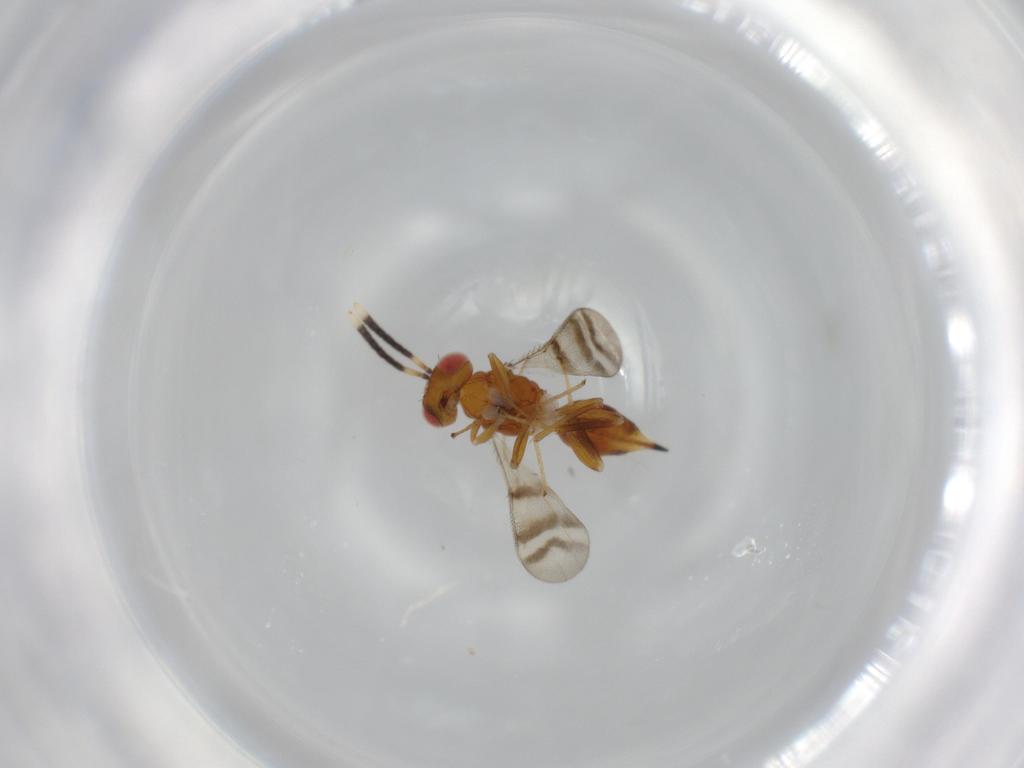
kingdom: Animalia
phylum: Arthropoda
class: Insecta
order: Hymenoptera
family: Diparidae
